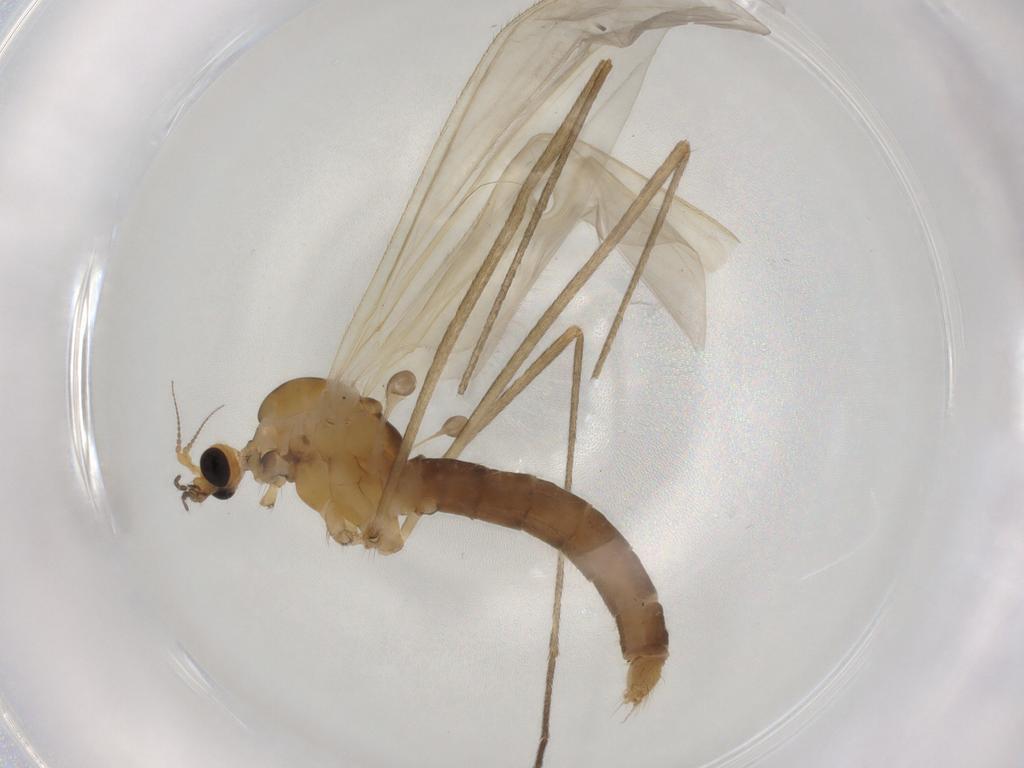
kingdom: Animalia
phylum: Arthropoda
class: Insecta
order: Diptera
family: Limoniidae
